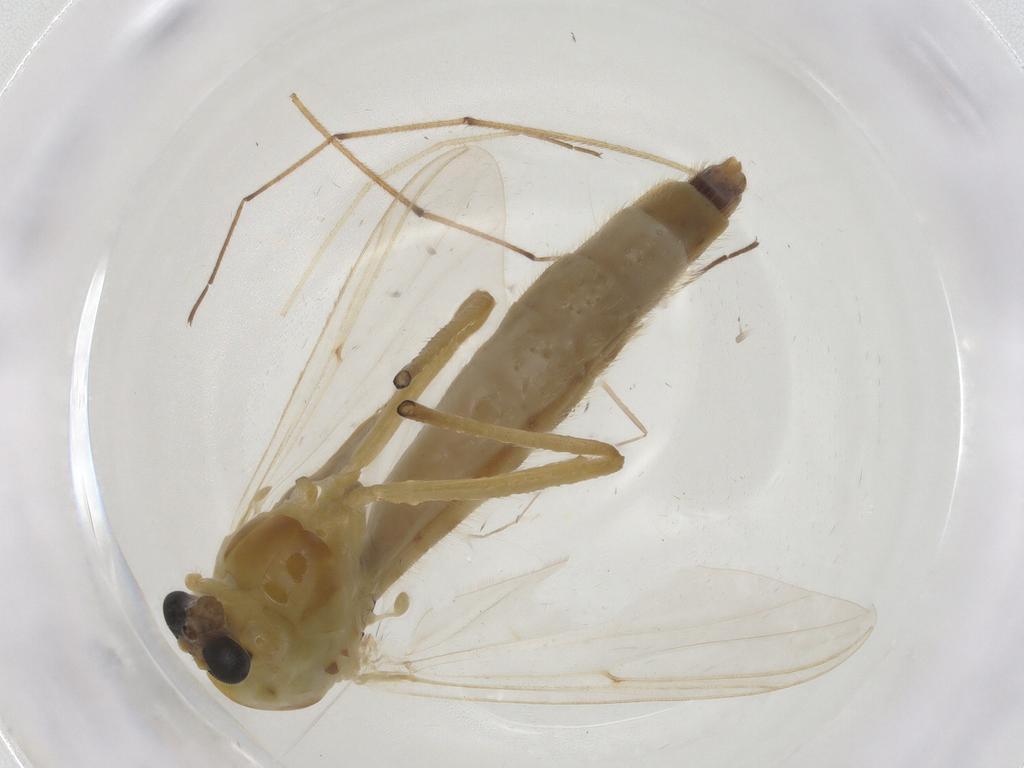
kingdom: Animalia
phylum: Arthropoda
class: Insecta
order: Diptera
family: Chironomidae
